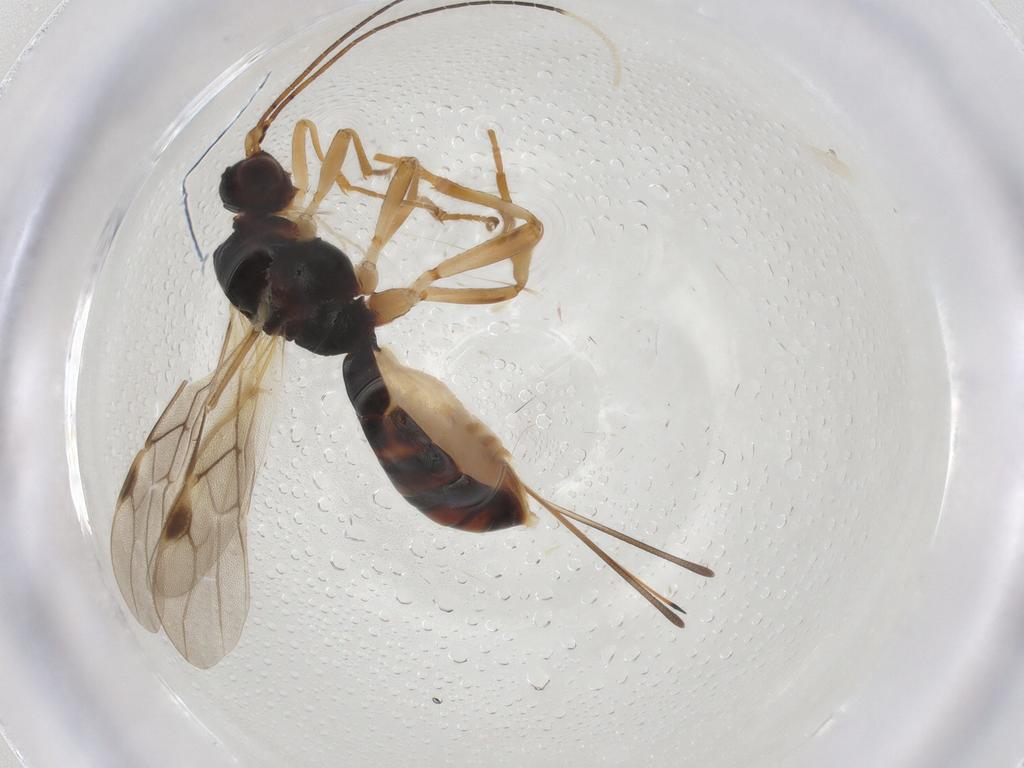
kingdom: Animalia
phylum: Arthropoda
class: Insecta
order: Hymenoptera
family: Braconidae
